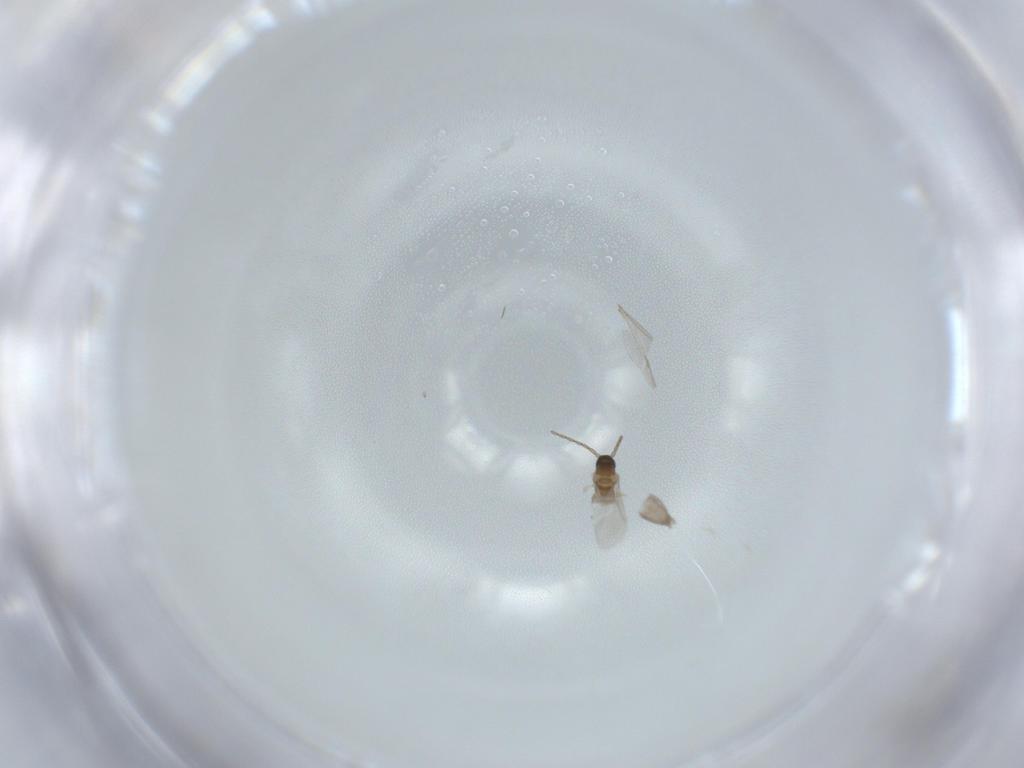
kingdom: Animalia
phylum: Arthropoda
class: Insecta
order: Diptera
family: Cecidomyiidae
